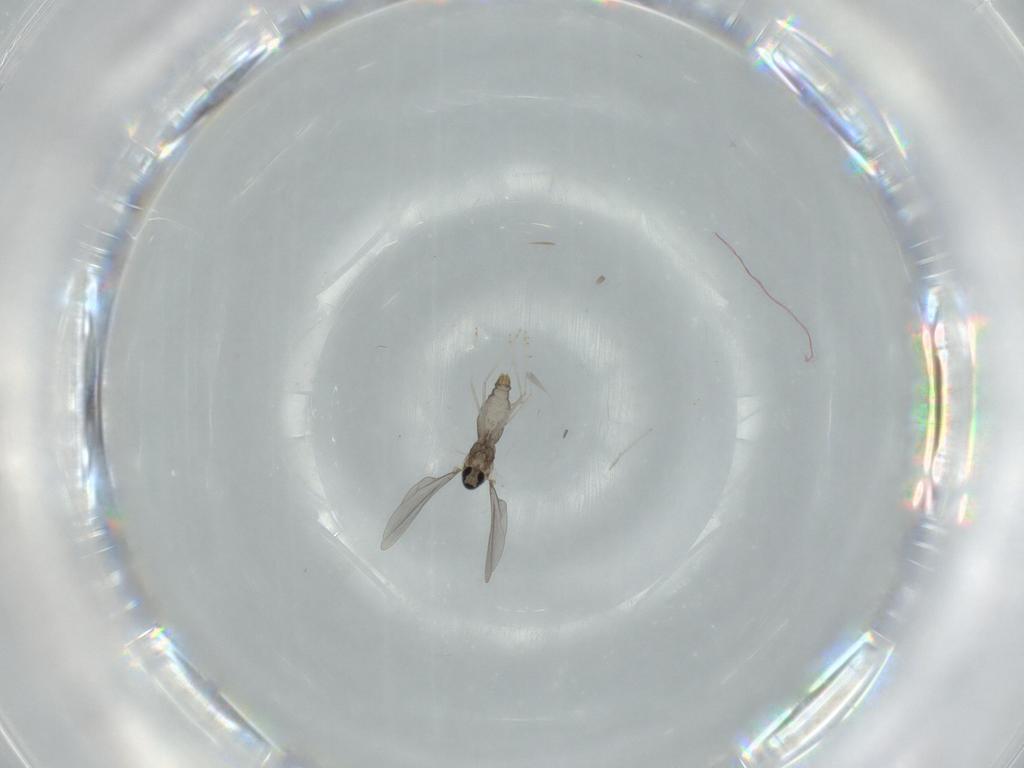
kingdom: Animalia
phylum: Arthropoda
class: Insecta
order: Diptera
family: Cecidomyiidae
